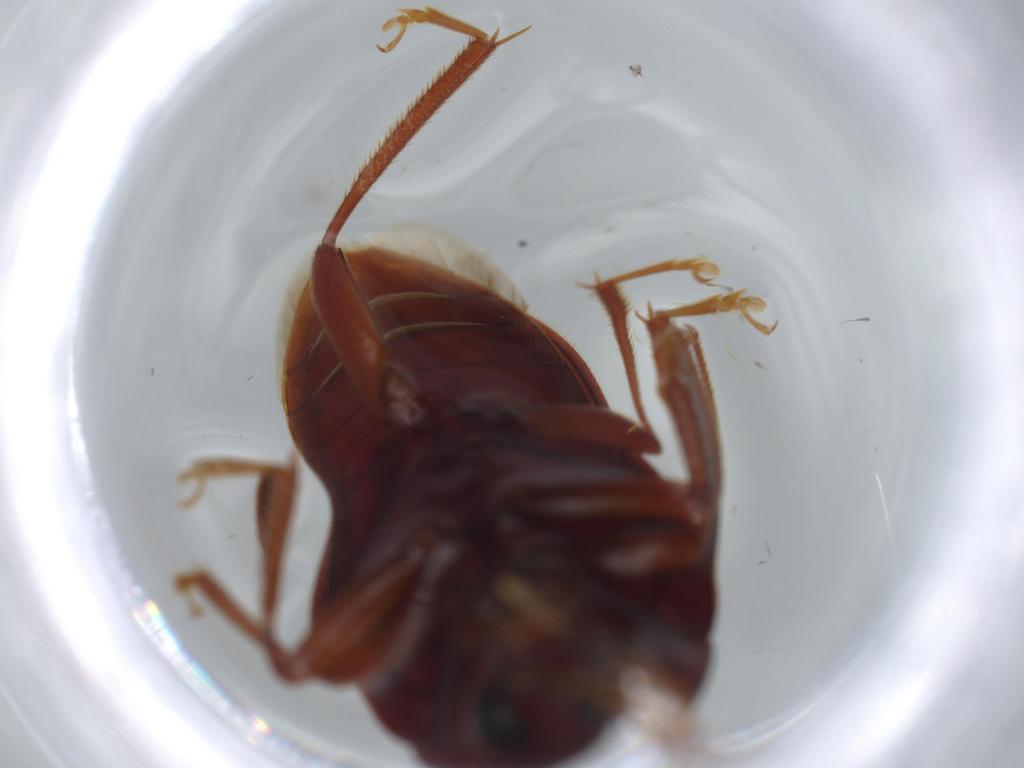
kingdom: Animalia
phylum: Arthropoda
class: Insecta
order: Coleoptera
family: Ptilodactylidae
